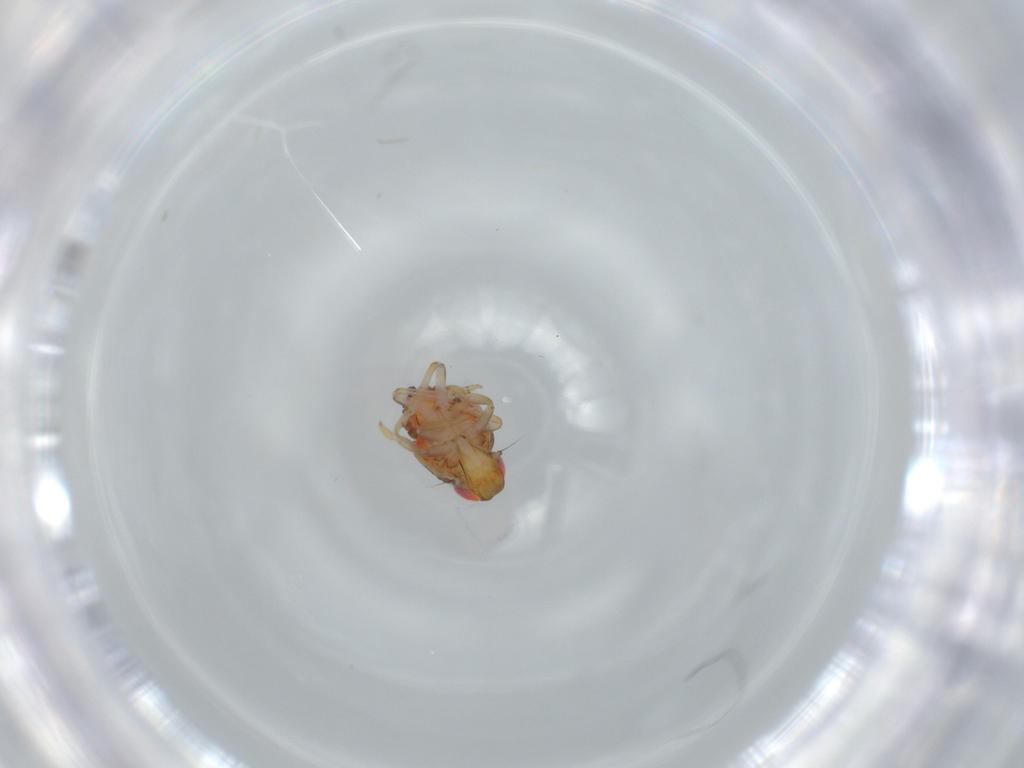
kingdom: Animalia
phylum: Arthropoda
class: Insecta
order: Hemiptera
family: Issidae
